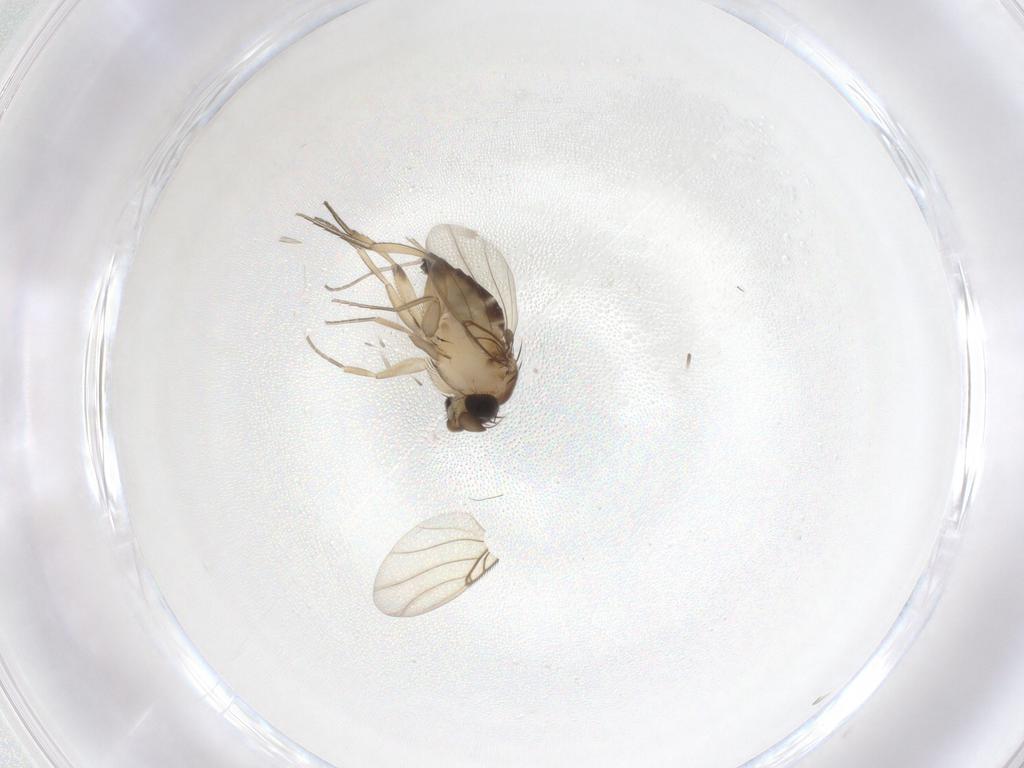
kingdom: Animalia
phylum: Arthropoda
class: Insecta
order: Diptera
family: Phoridae
